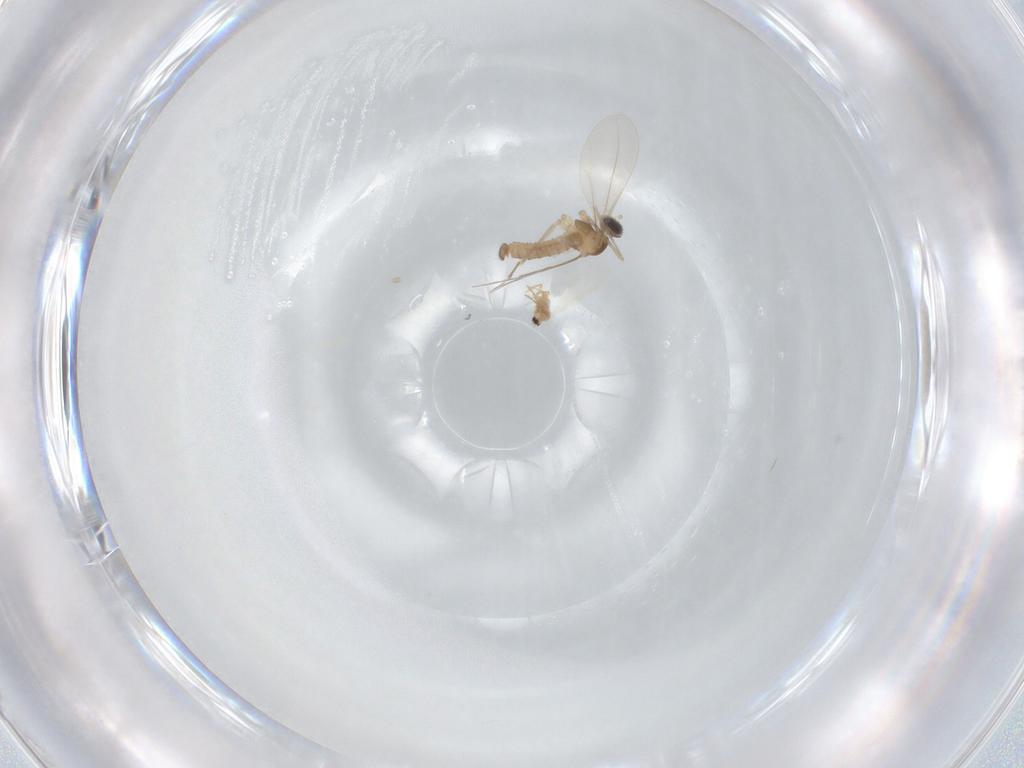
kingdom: Animalia
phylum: Arthropoda
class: Insecta
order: Diptera
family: Cecidomyiidae
